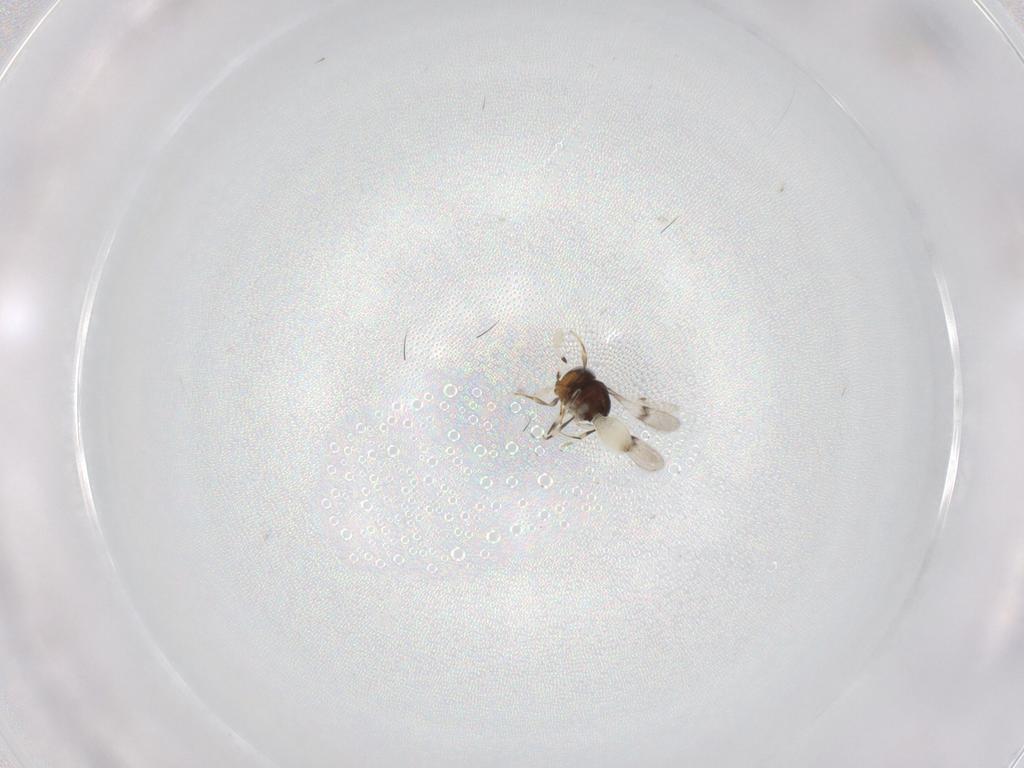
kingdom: Animalia
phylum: Arthropoda
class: Insecta
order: Hymenoptera
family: Scelionidae
